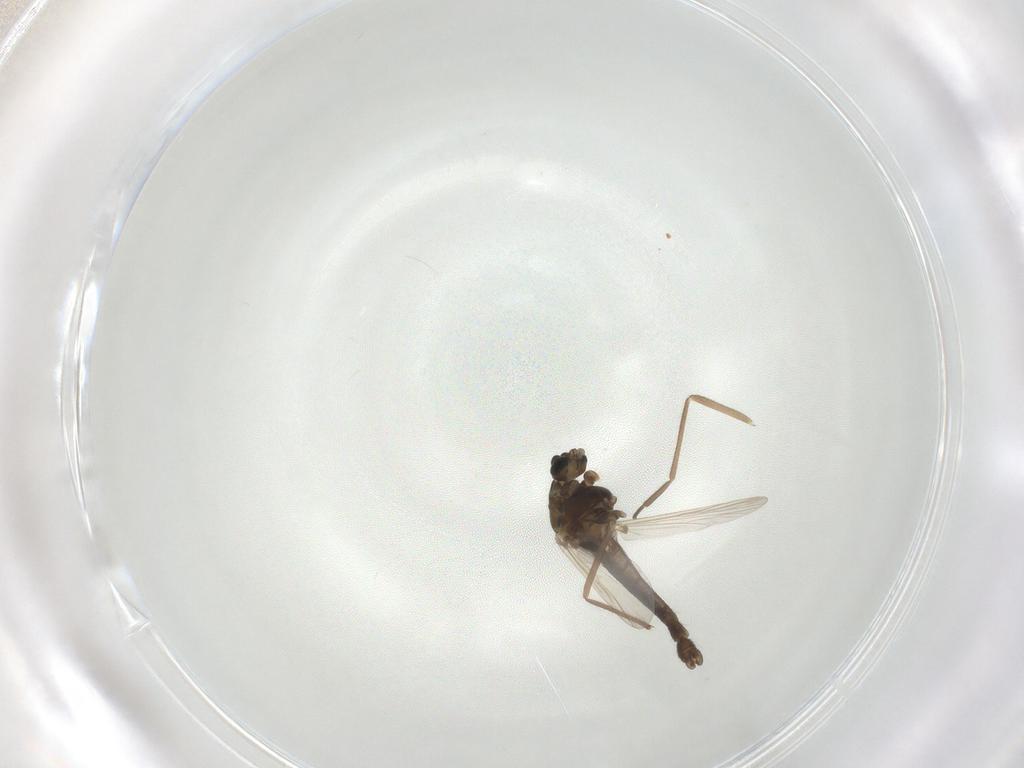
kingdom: Animalia
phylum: Arthropoda
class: Insecta
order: Diptera
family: Chironomidae
